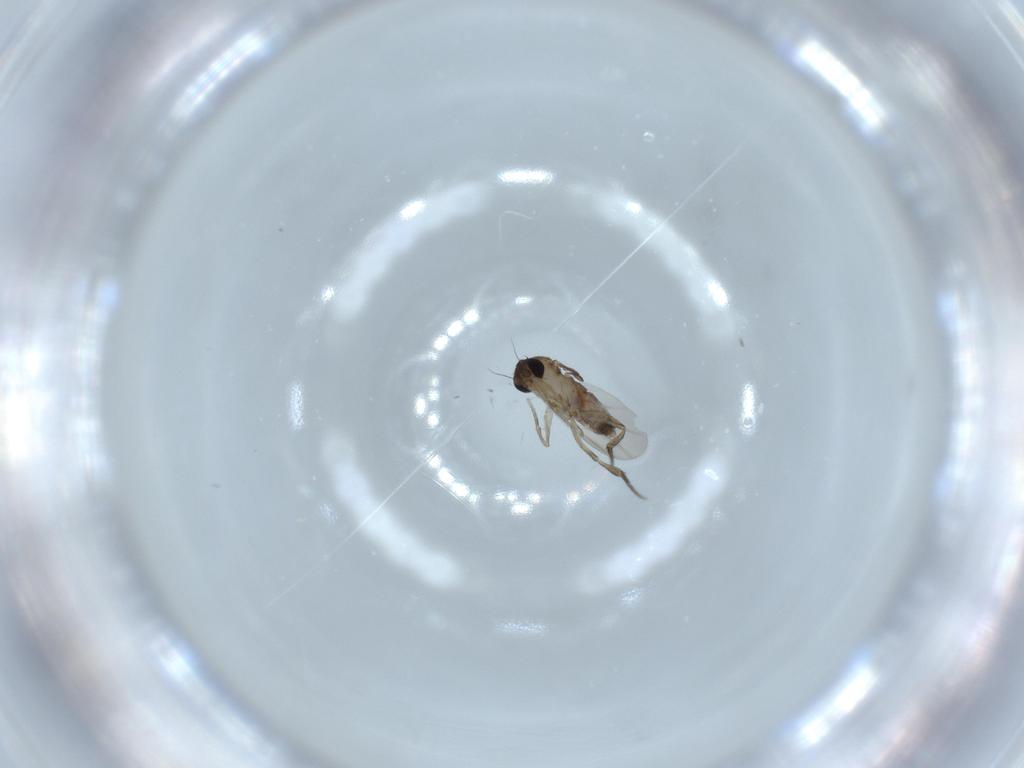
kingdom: Animalia
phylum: Arthropoda
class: Insecta
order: Diptera
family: Phoridae
